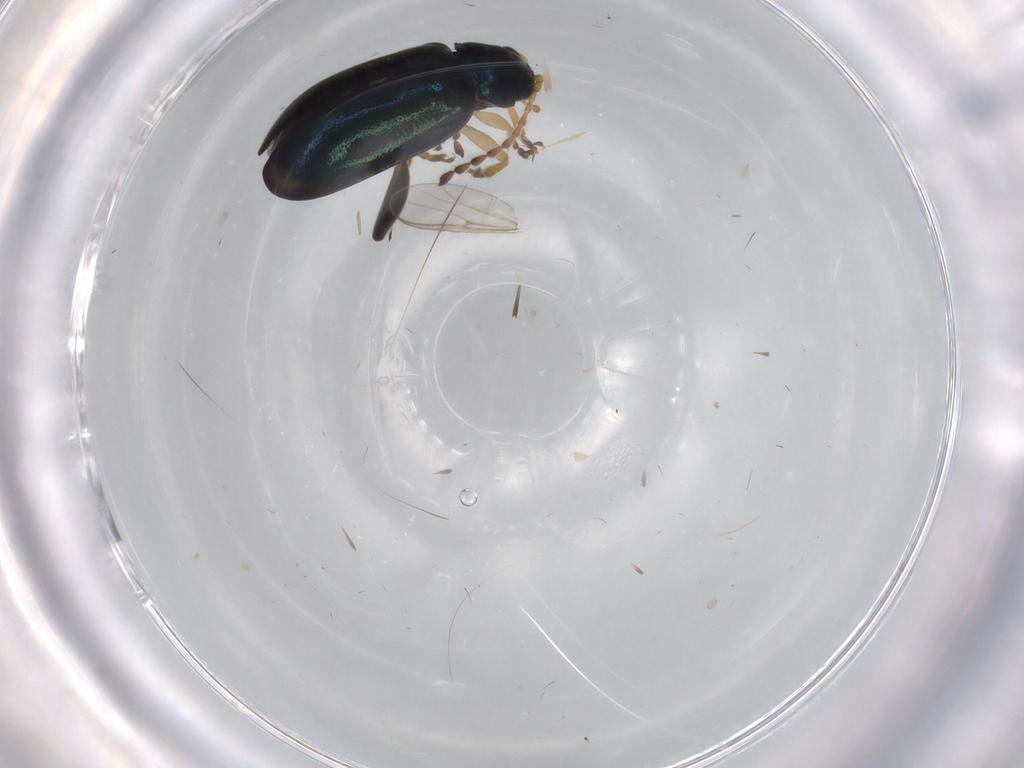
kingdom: Animalia
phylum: Arthropoda
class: Insecta
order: Coleoptera
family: Chrysomelidae
